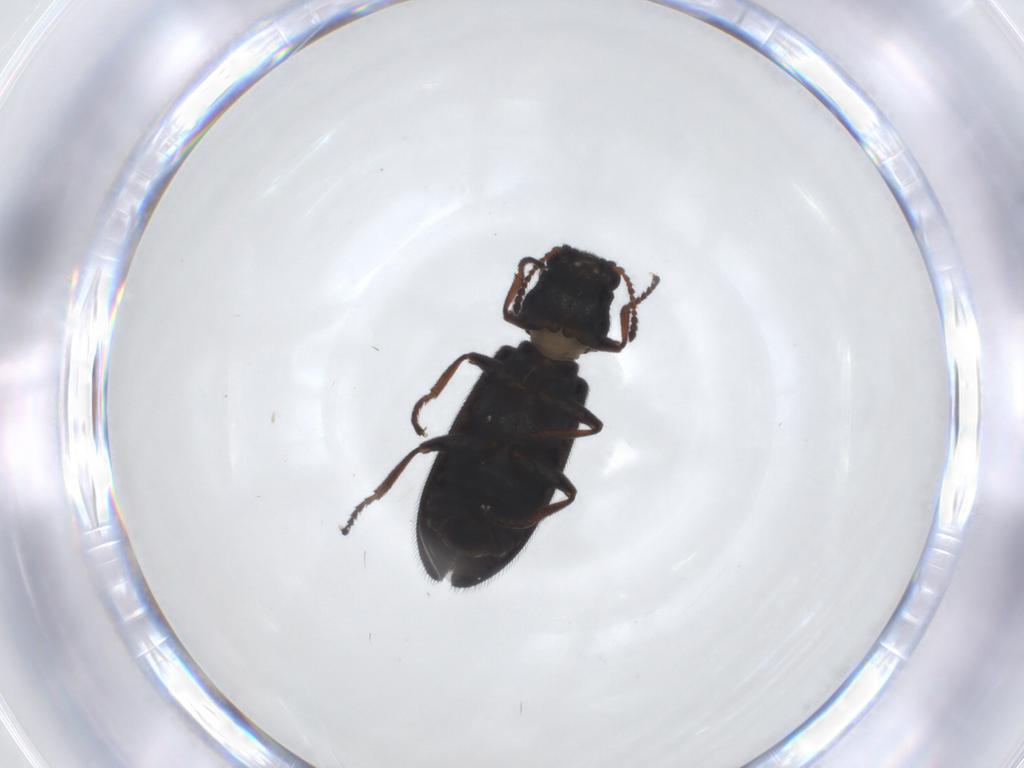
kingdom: Animalia
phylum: Arthropoda
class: Insecta
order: Coleoptera
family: Melyridae
